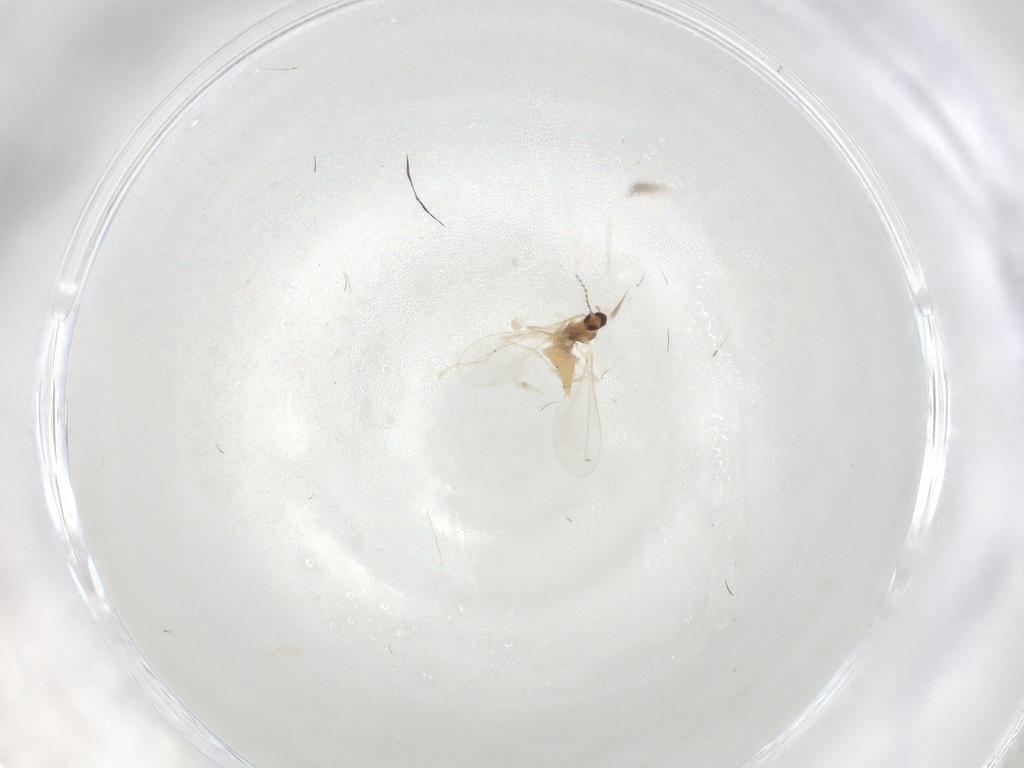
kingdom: Animalia
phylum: Arthropoda
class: Insecta
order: Diptera
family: Cecidomyiidae
